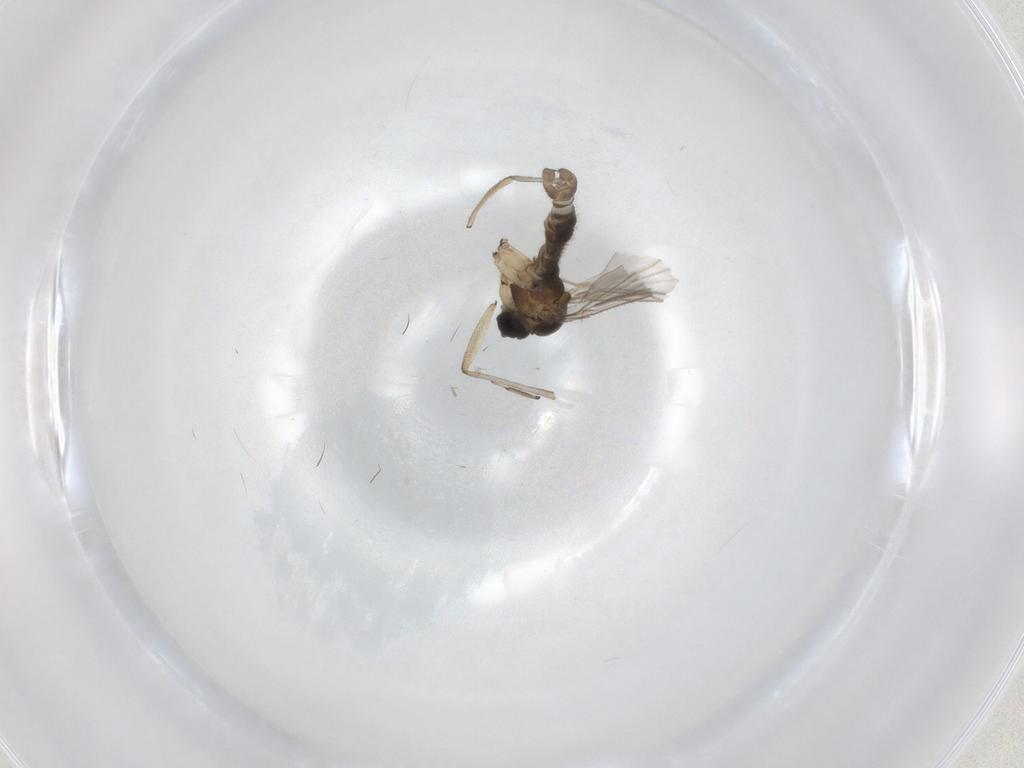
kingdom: Animalia
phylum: Arthropoda
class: Insecta
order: Diptera
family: Sciaridae
